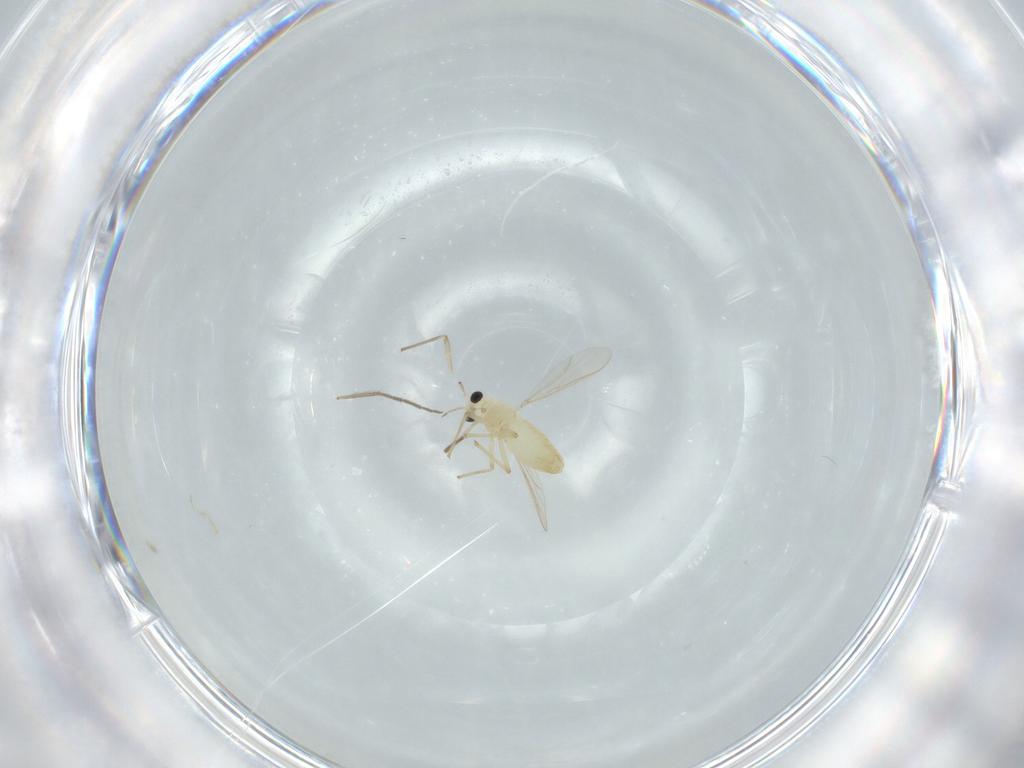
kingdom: Animalia
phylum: Arthropoda
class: Insecta
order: Diptera
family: Chironomidae
